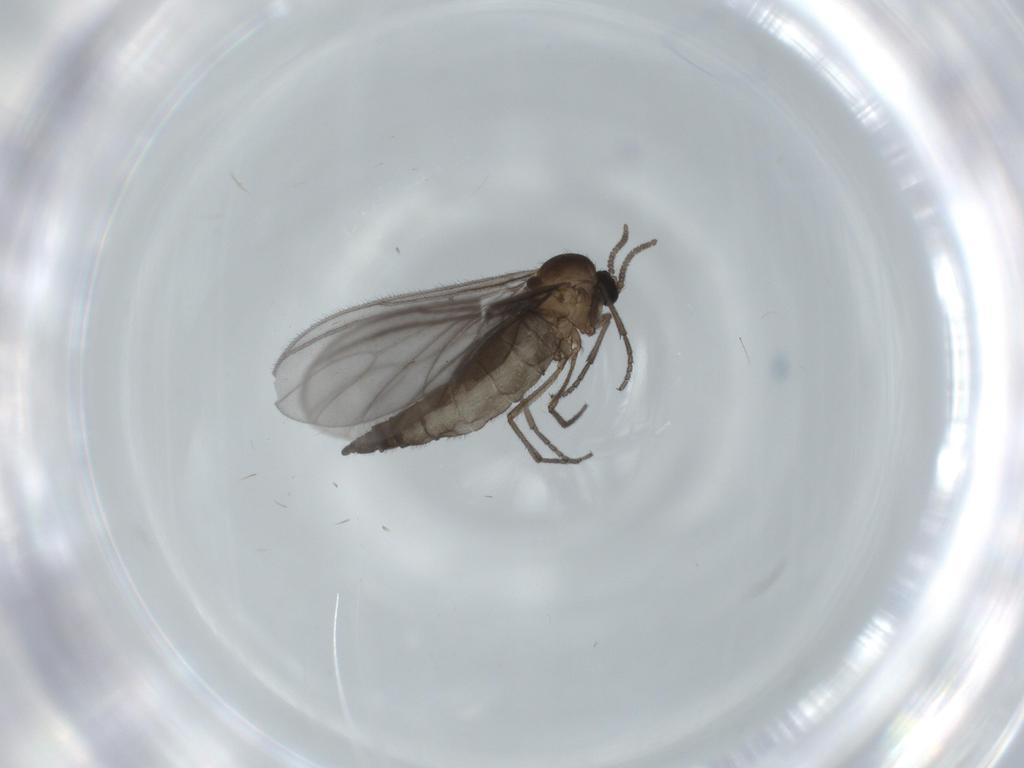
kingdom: Animalia
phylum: Arthropoda
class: Insecta
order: Diptera
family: Sciaridae
